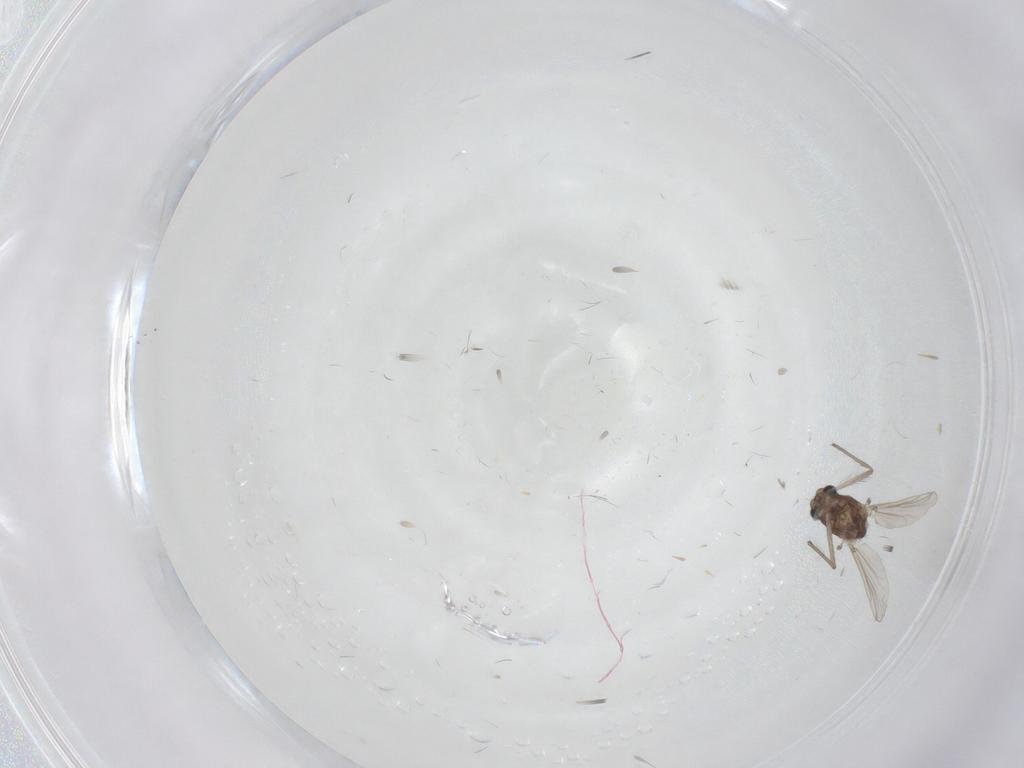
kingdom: Animalia
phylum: Arthropoda
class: Insecta
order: Diptera
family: Chironomidae
